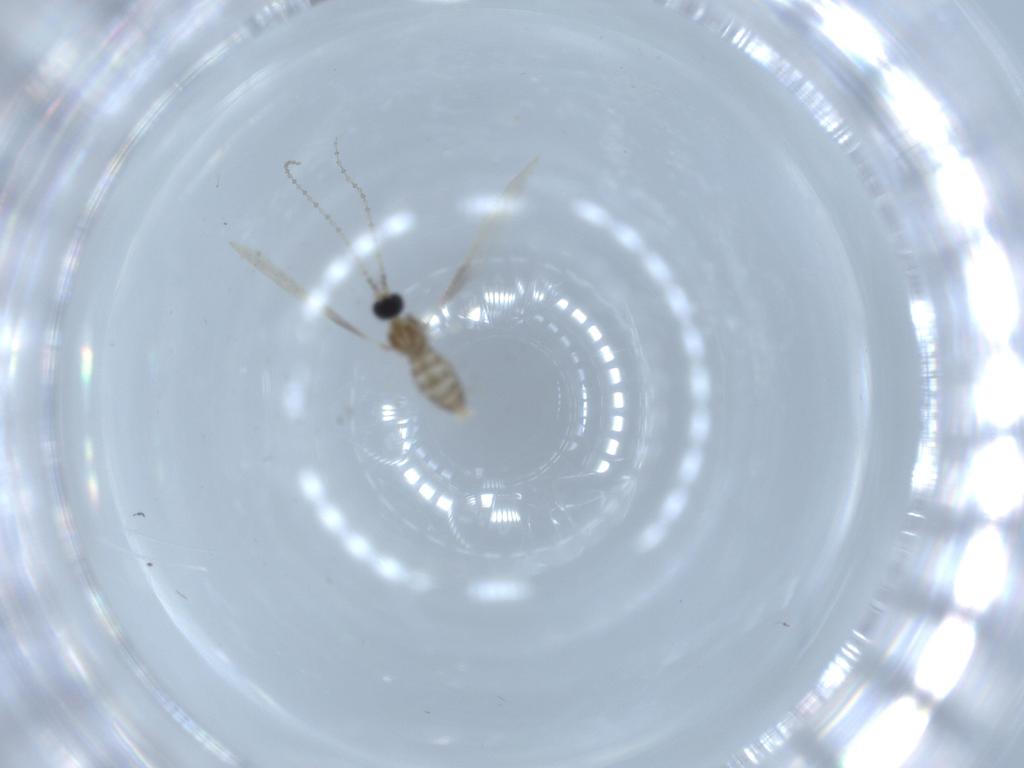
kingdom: Animalia
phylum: Arthropoda
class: Insecta
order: Diptera
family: Cecidomyiidae
